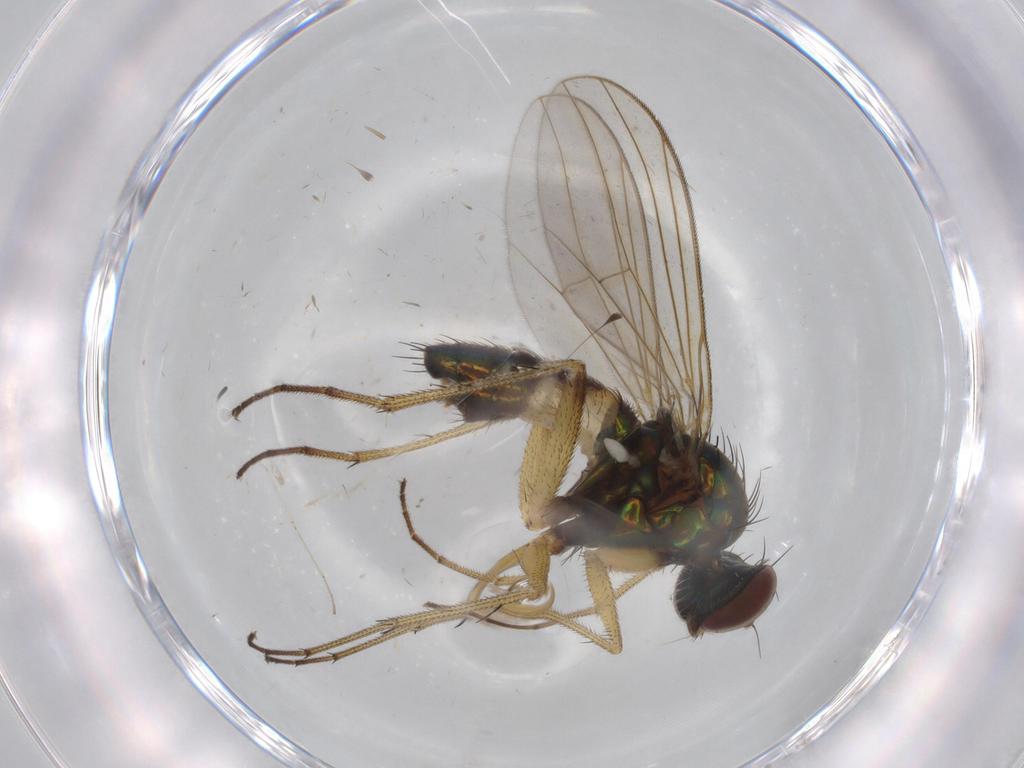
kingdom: Animalia
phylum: Arthropoda
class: Insecta
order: Diptera
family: Dolichopodidae
